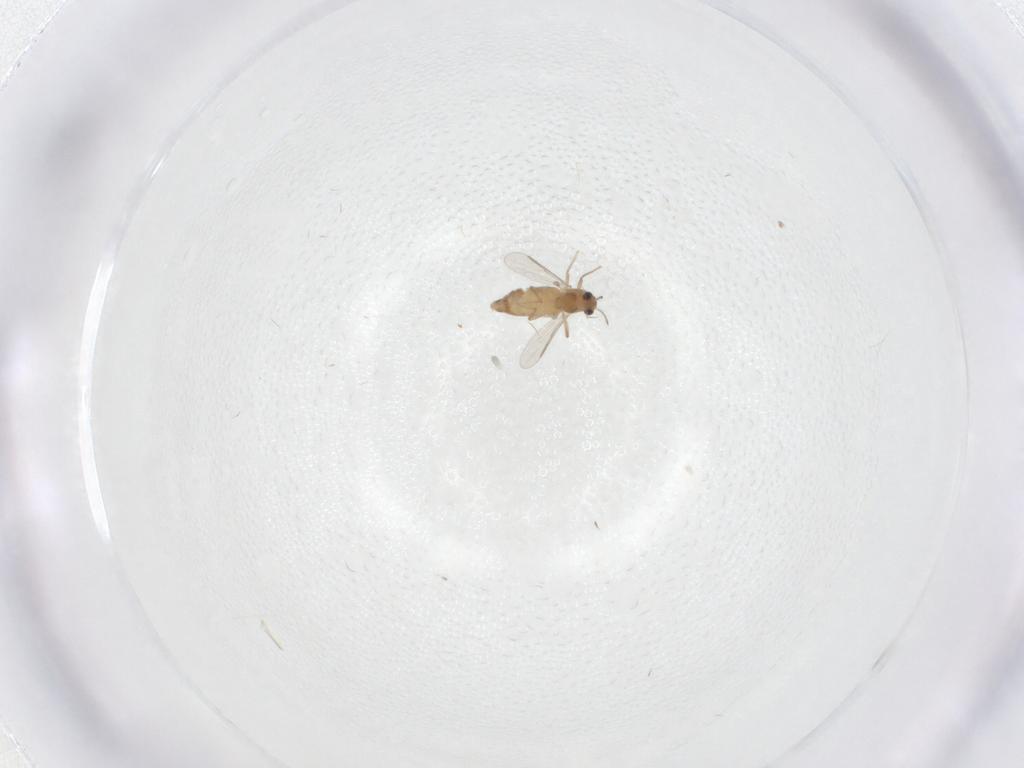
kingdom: Animalia
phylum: Arthropoda
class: Insecta
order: Diptera
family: Chironomidae
